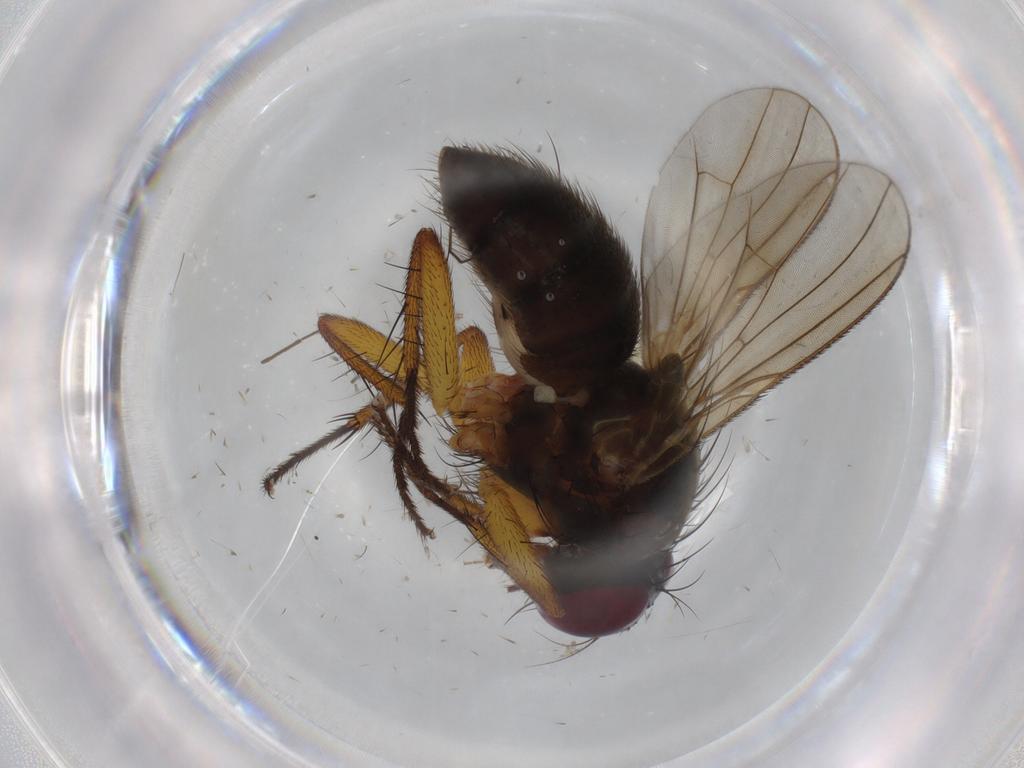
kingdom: Animalia
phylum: Arthropoda
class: Insecta
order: Diptera
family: Muscidae
